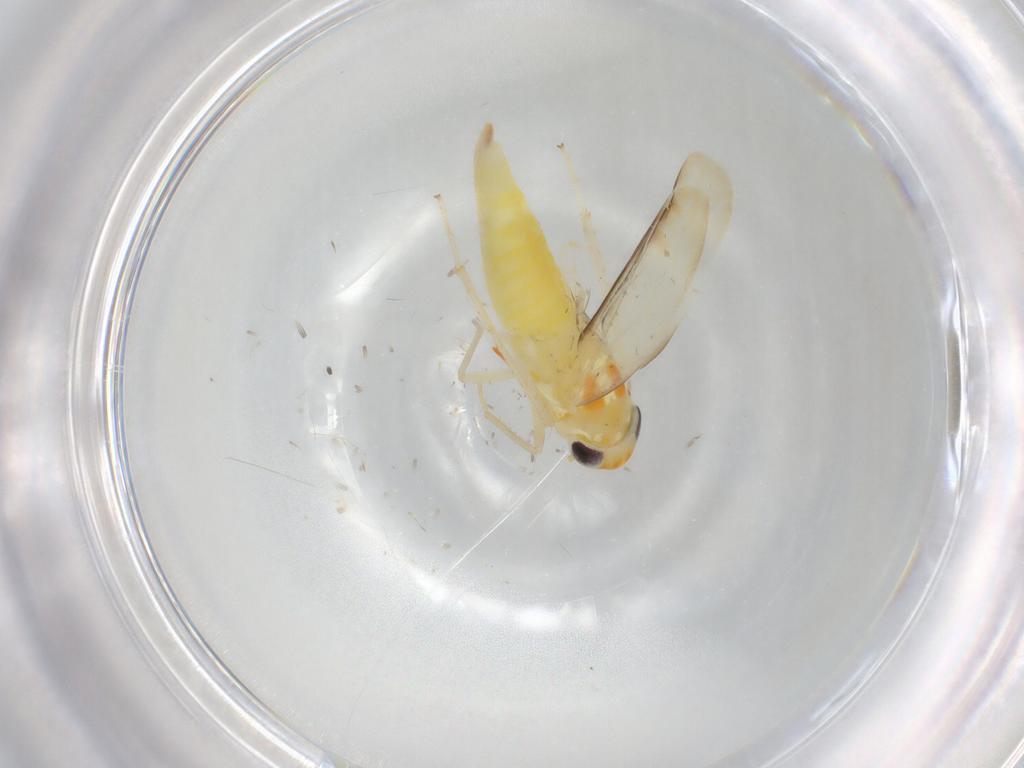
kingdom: Animalia
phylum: Arthropoda
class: Insecta
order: Hemiptera
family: Cicadellidae
